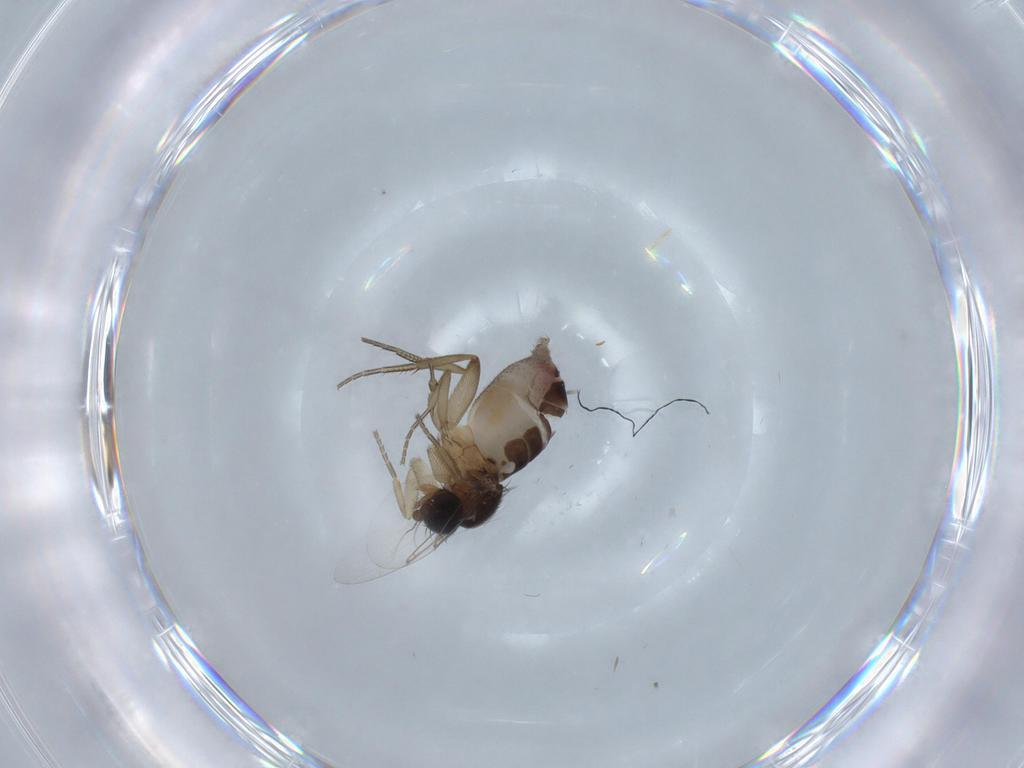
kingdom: Animalia
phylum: Arthropoda
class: Insecta
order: Diptera
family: Phoridae
